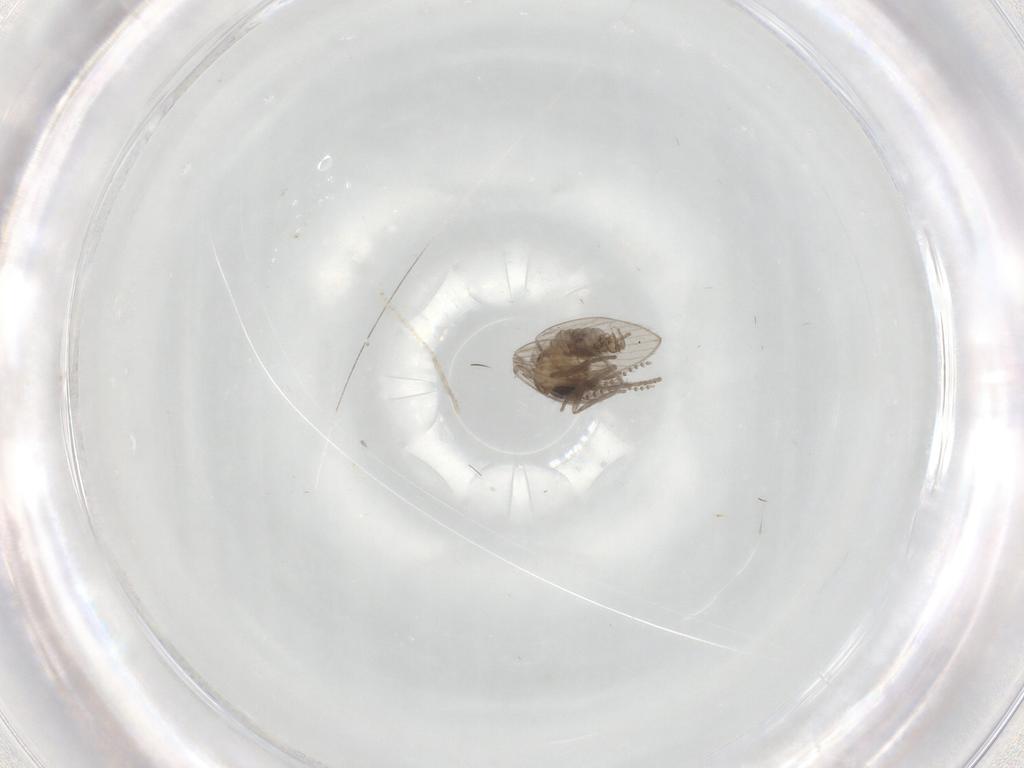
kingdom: Animalia
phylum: Arthropoda
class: Insecta
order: Diptera
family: Psychodidae
